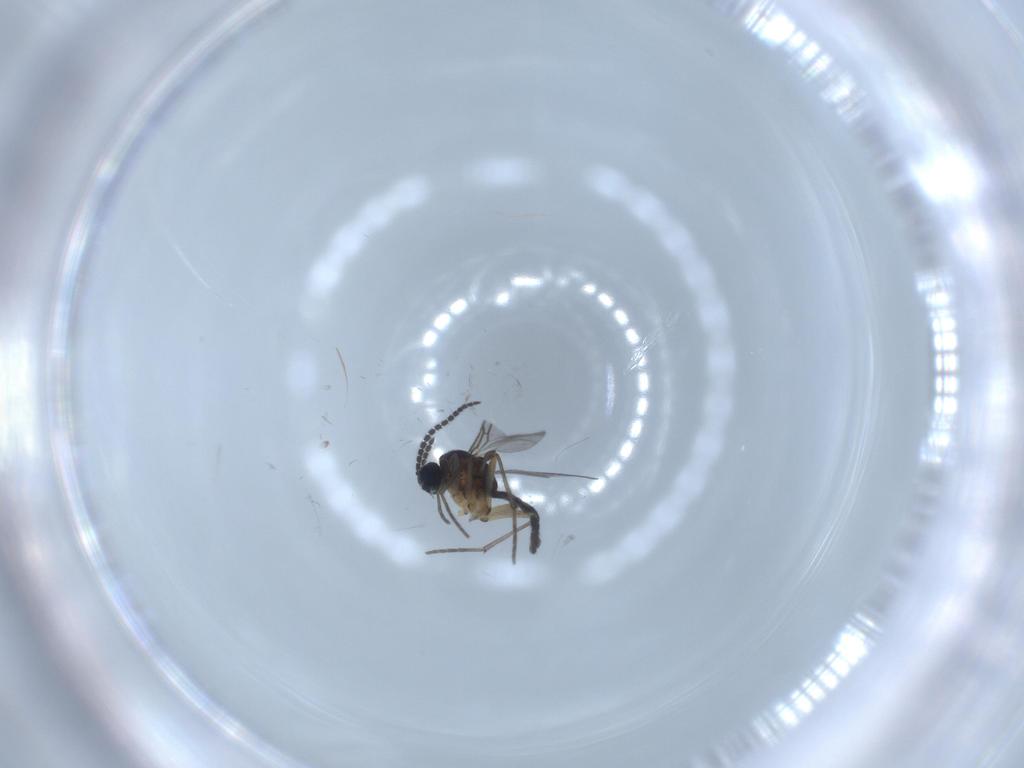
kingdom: Animalia
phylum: Arthropoda
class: Insecta
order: Diptera
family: Sciaridae
